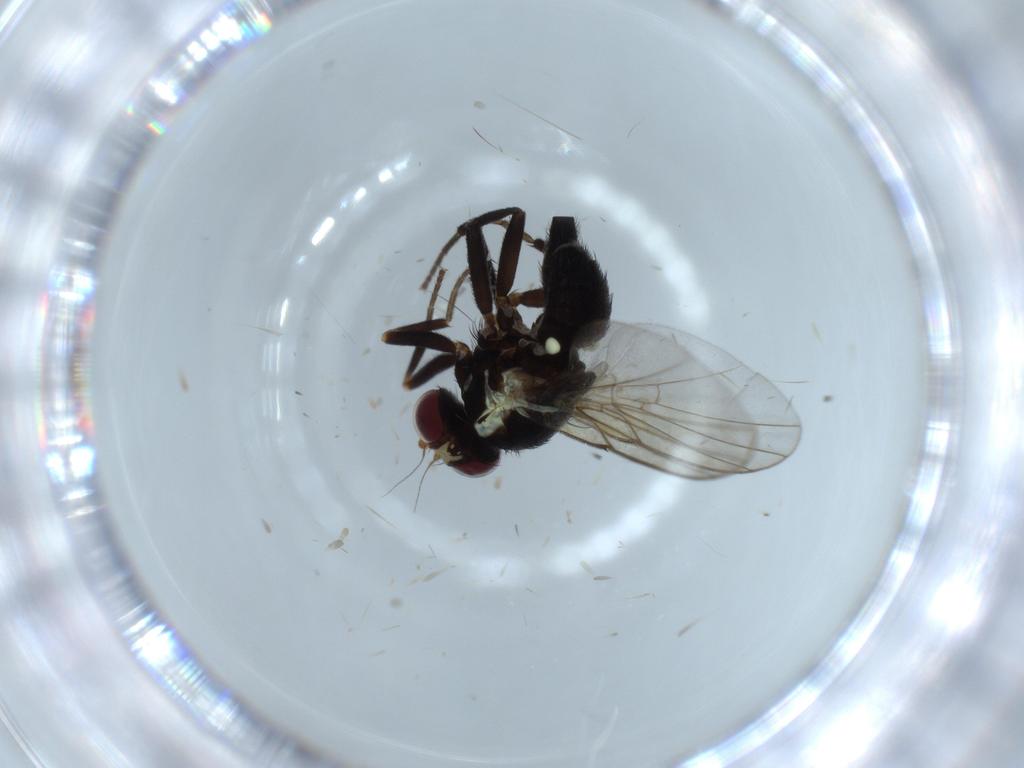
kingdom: Animalia
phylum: Arthropoda
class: Insecta
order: Diptera
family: Agromyzidae
